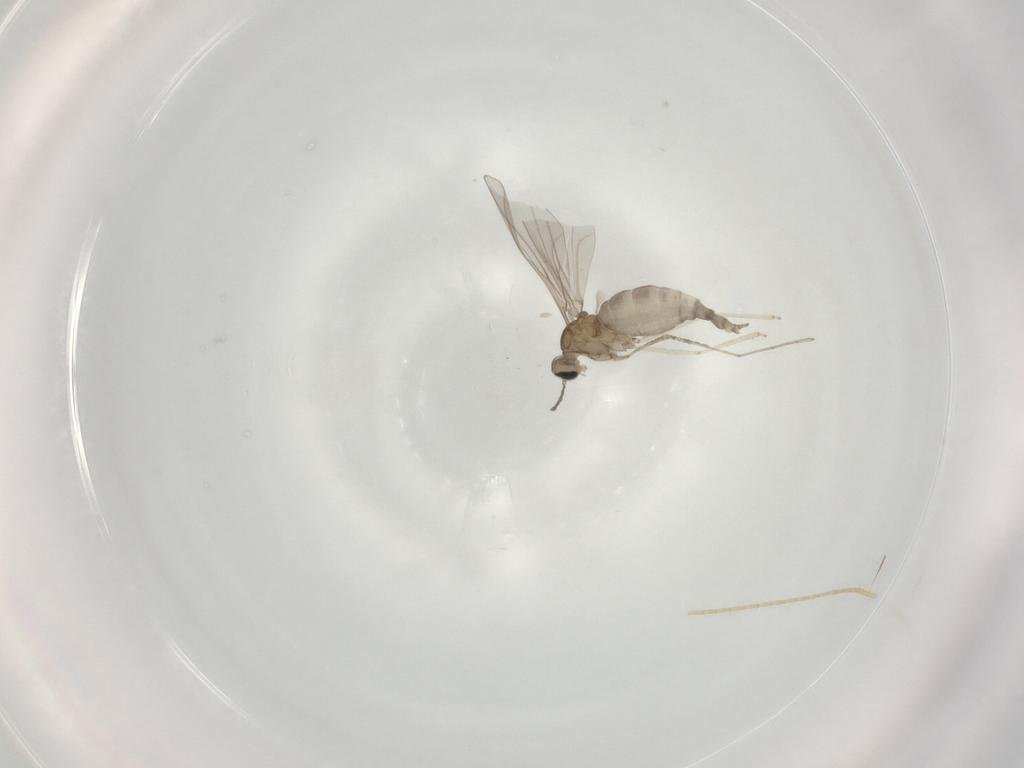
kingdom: Animalia
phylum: Arthropoda
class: Insecta
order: Diptera
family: Cecidomyiidae
